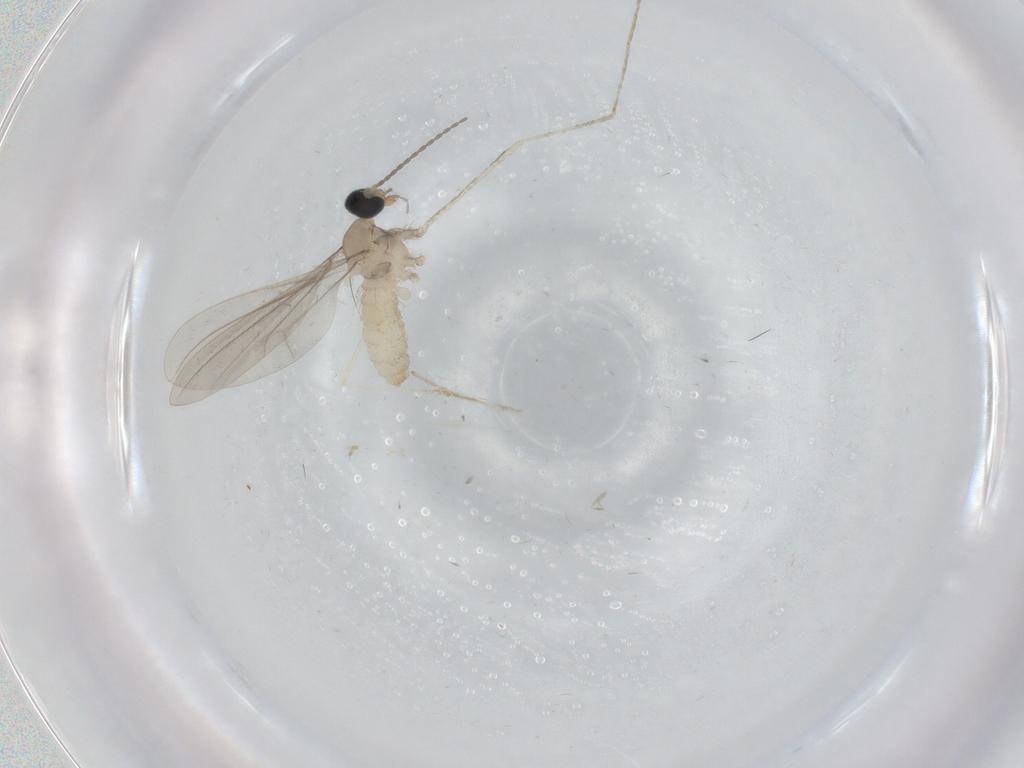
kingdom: Animalia
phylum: Arthropoda
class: Insecta
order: Diptera
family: Cecidomyiidae
